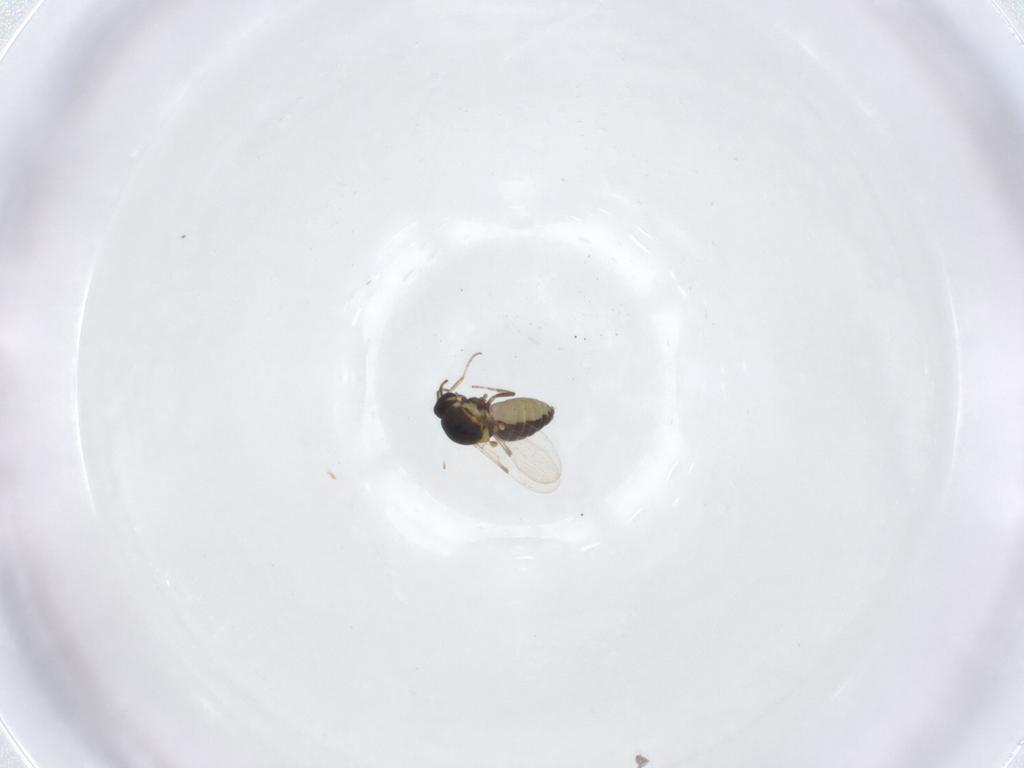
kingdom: Animalia
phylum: Arthropoda
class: Insecta
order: Diptera
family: Ceratopogonidae
